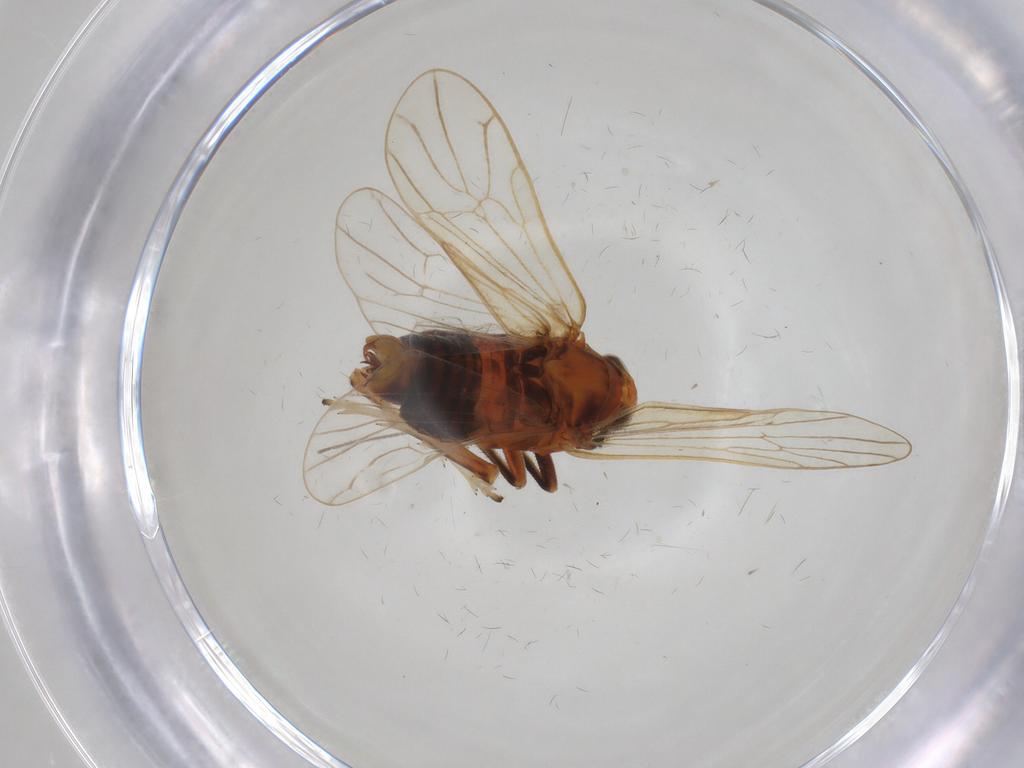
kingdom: Animalia
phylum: Arthropoda
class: Insecta
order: Hemiptera
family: Delphacidae
